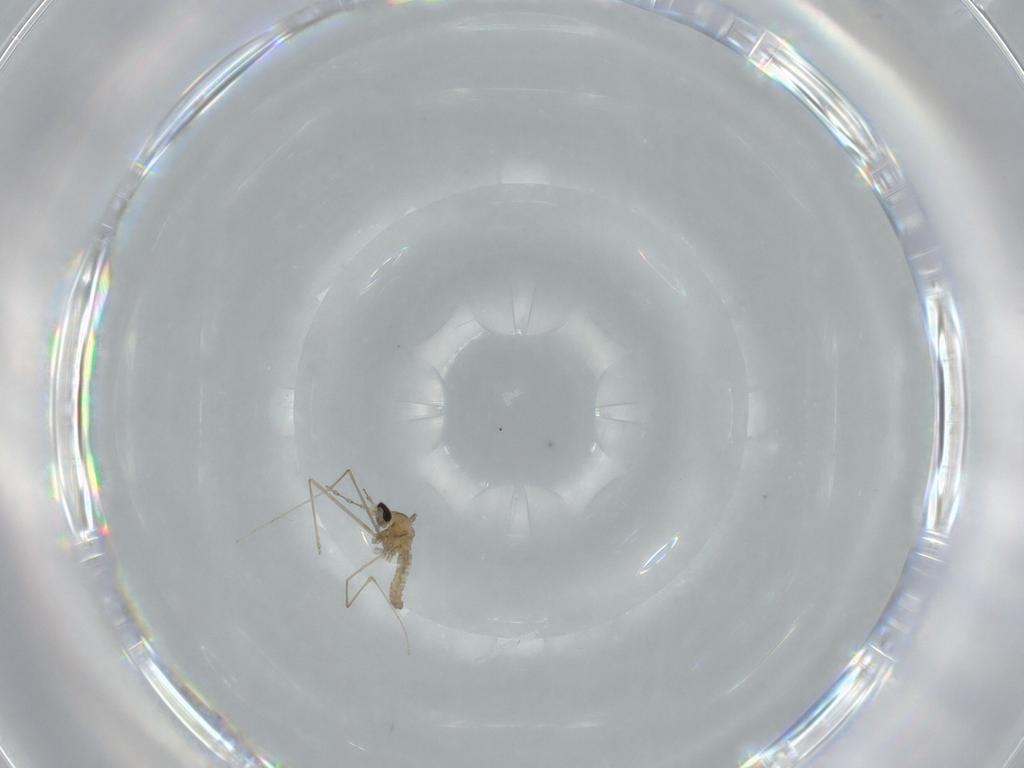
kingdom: Animalia
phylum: Arthropoda
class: Insecta
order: Diptera
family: Cecidomyiidae
